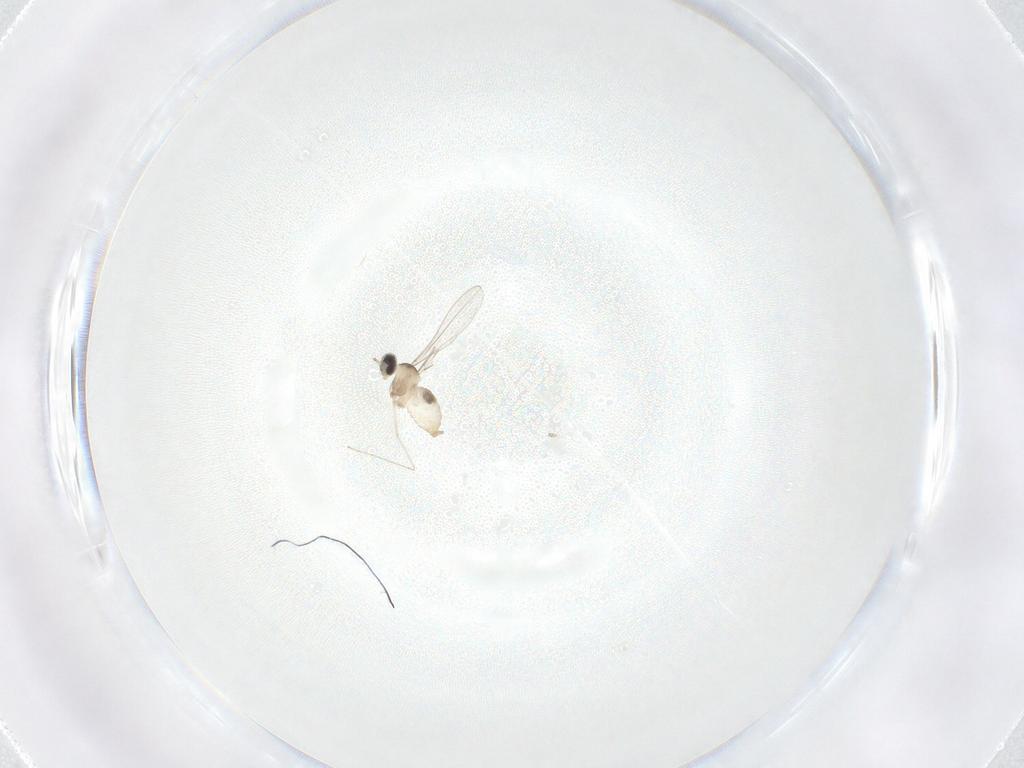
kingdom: Animalia
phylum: Arthropoda
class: Insecta
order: Diptera
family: Cecidomyiidae
